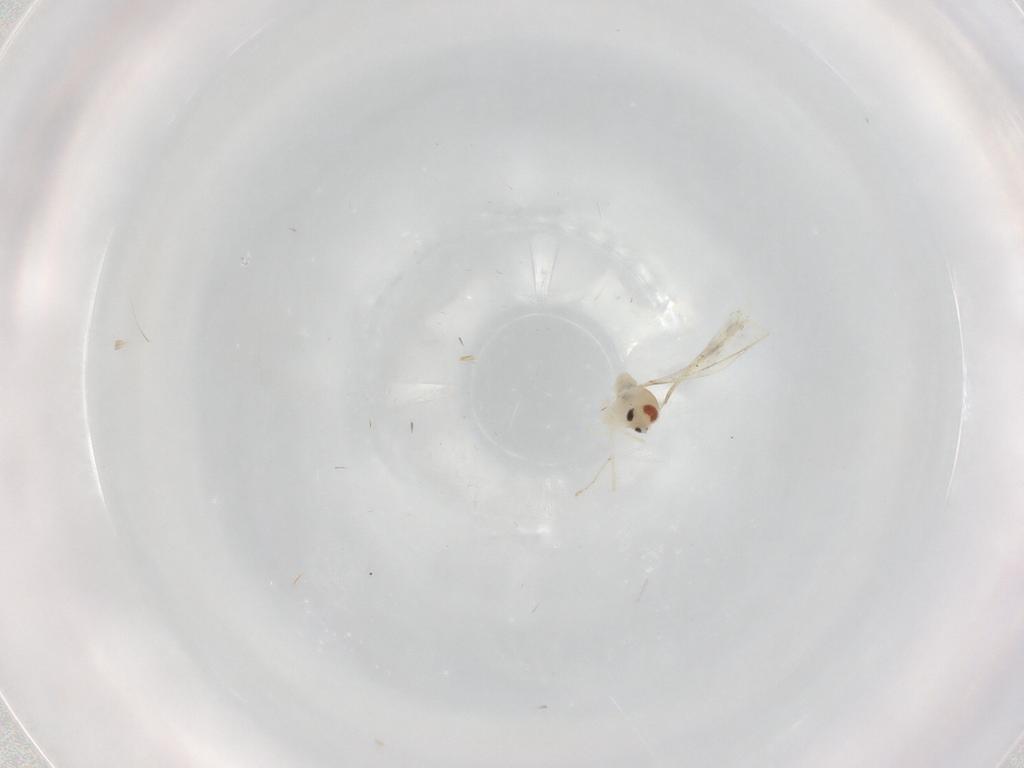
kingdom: Animalia
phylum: Arthropoda
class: Insecta
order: Diptera
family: Cecidomyiidae
